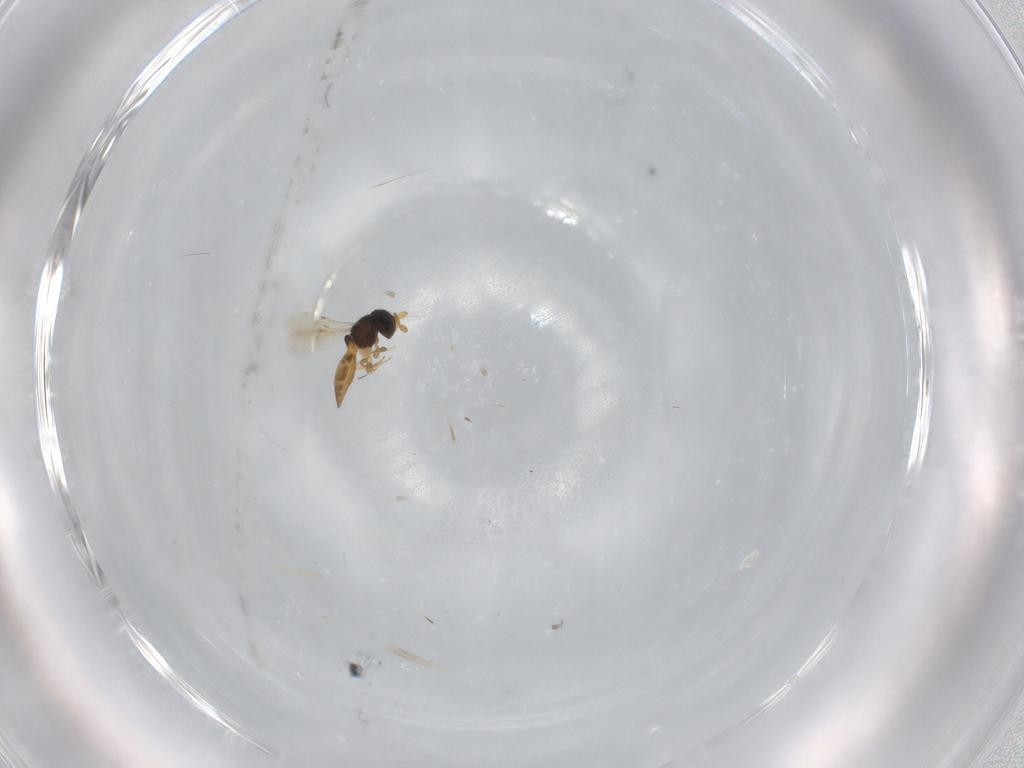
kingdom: Animalia
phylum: Arthropoda
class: Insecta
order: Hymenoptera
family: Scelionidae
